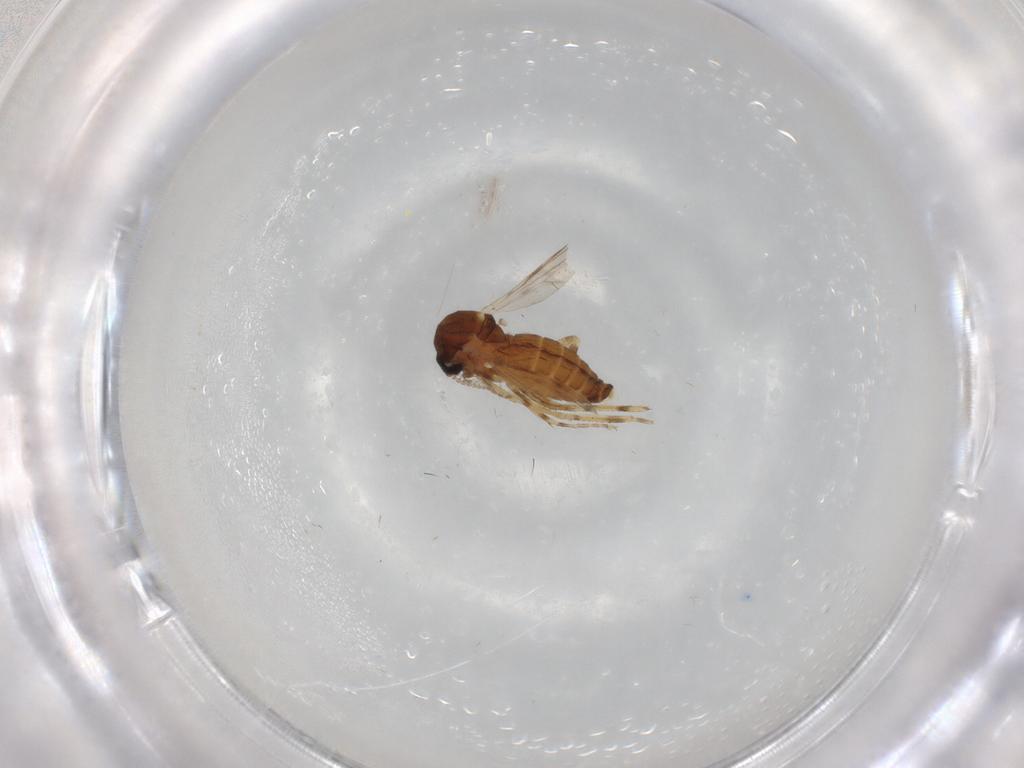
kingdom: Animalia
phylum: Arthropoda
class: Insecta
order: Diptera
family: Ceratopogonidae
